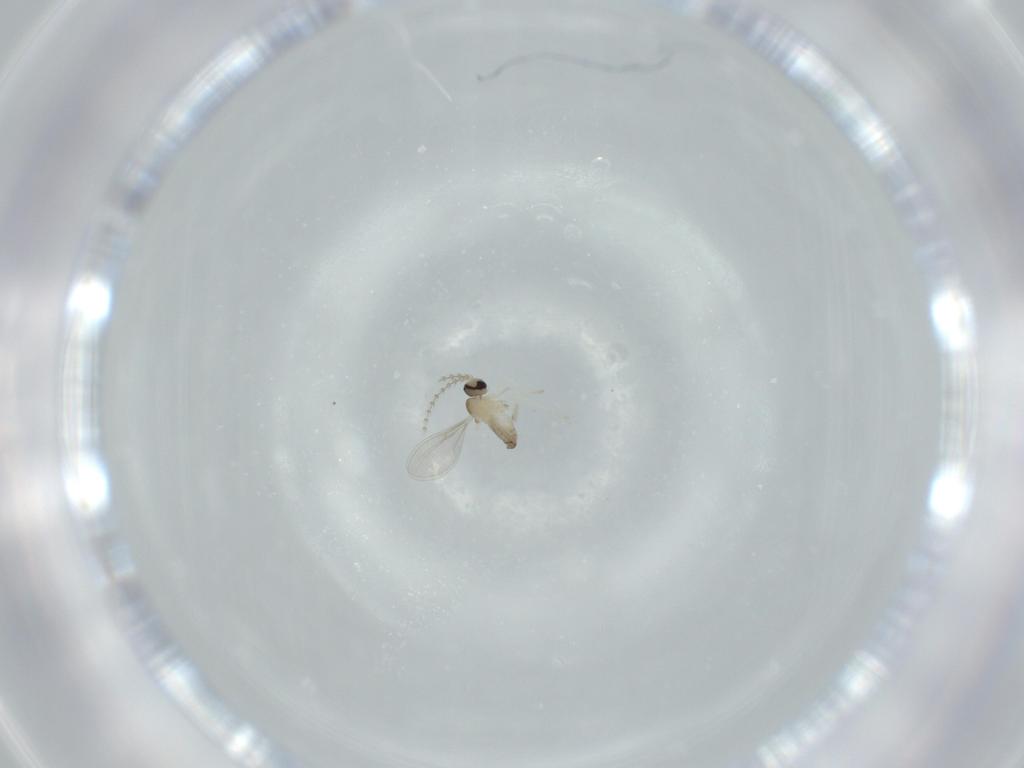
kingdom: Animalia
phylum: Arthropoda
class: Insecta
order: Diptera
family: Cecidomyiidae
